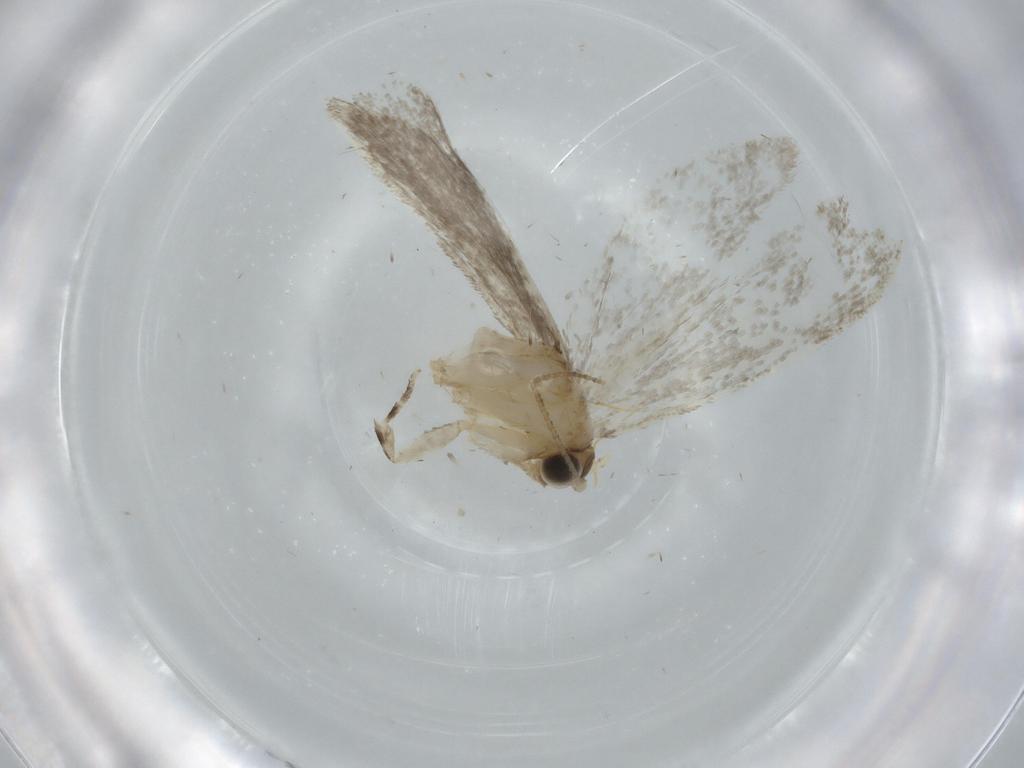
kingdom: Animalia
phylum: Arthropoda
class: Insecta
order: Lepidoptera
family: Tineidae
